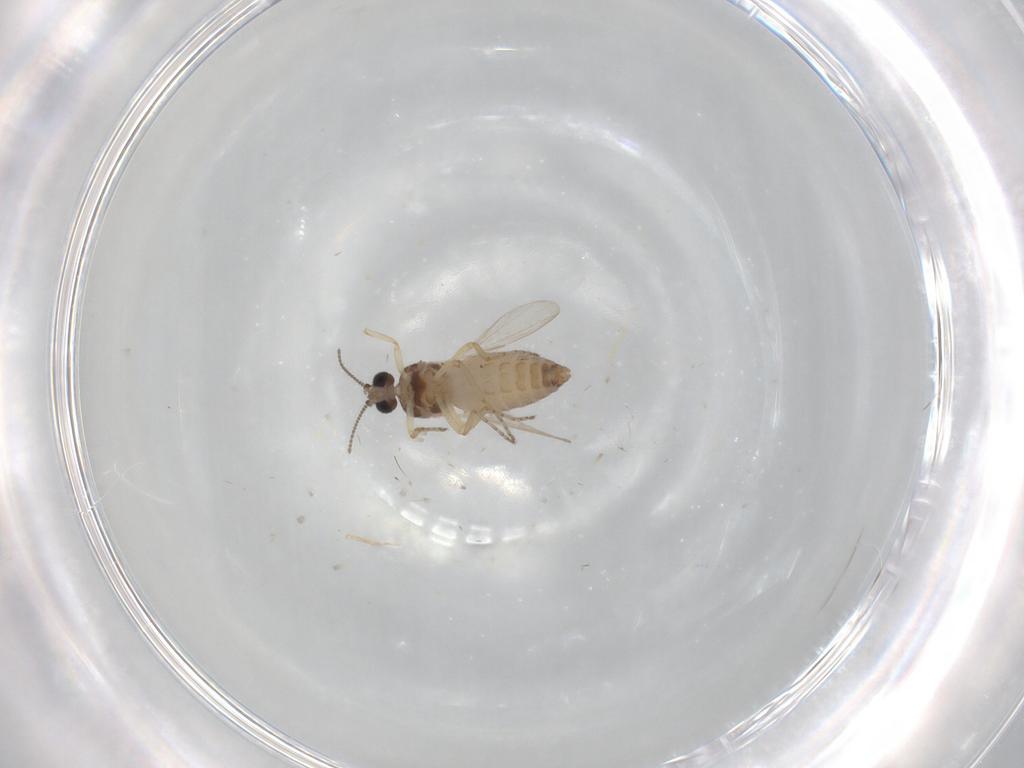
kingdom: Animalia
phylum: Arthropoda
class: Insecta
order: Diptera
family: Ceratopogonidae
